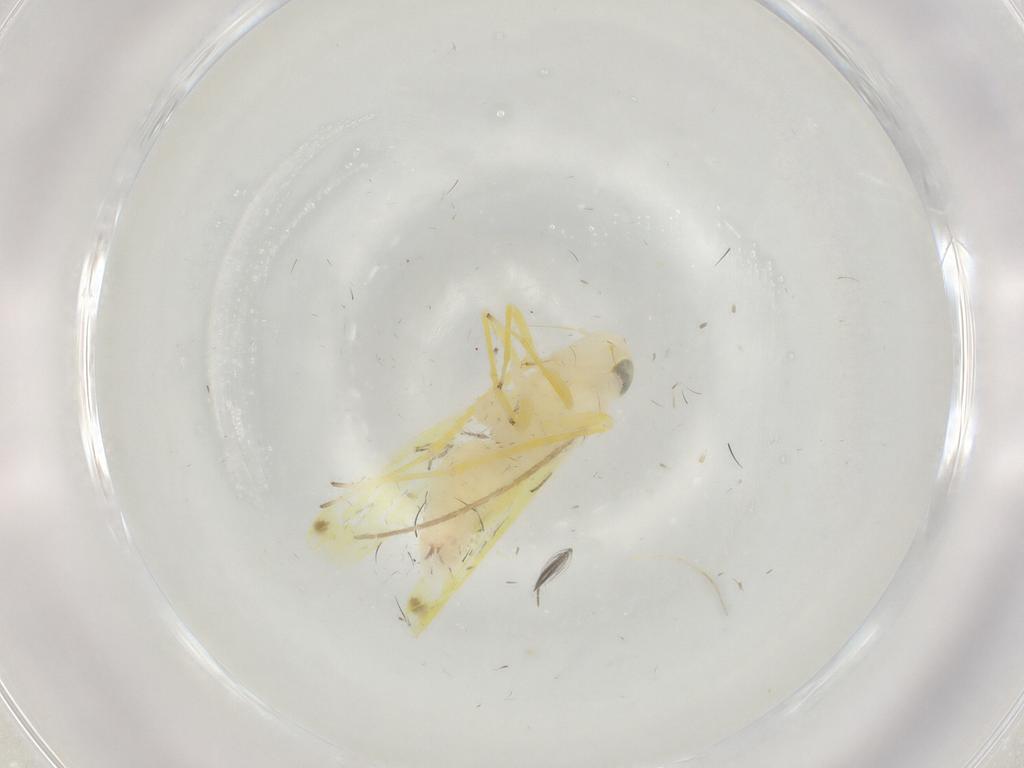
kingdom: Animalia
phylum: Arthropoda
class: Insecta
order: Hemiptera
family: Cicadellidae
